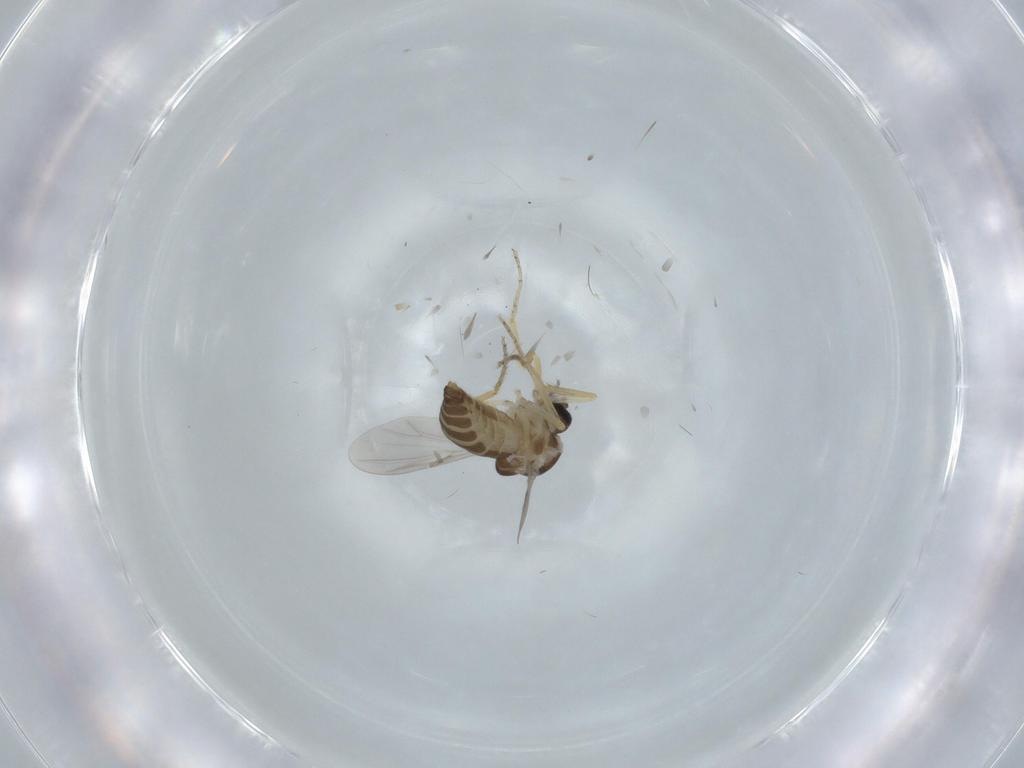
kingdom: Animalia
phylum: Arthropoda
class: Insecta
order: Diptera
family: Ceratopogonidae
